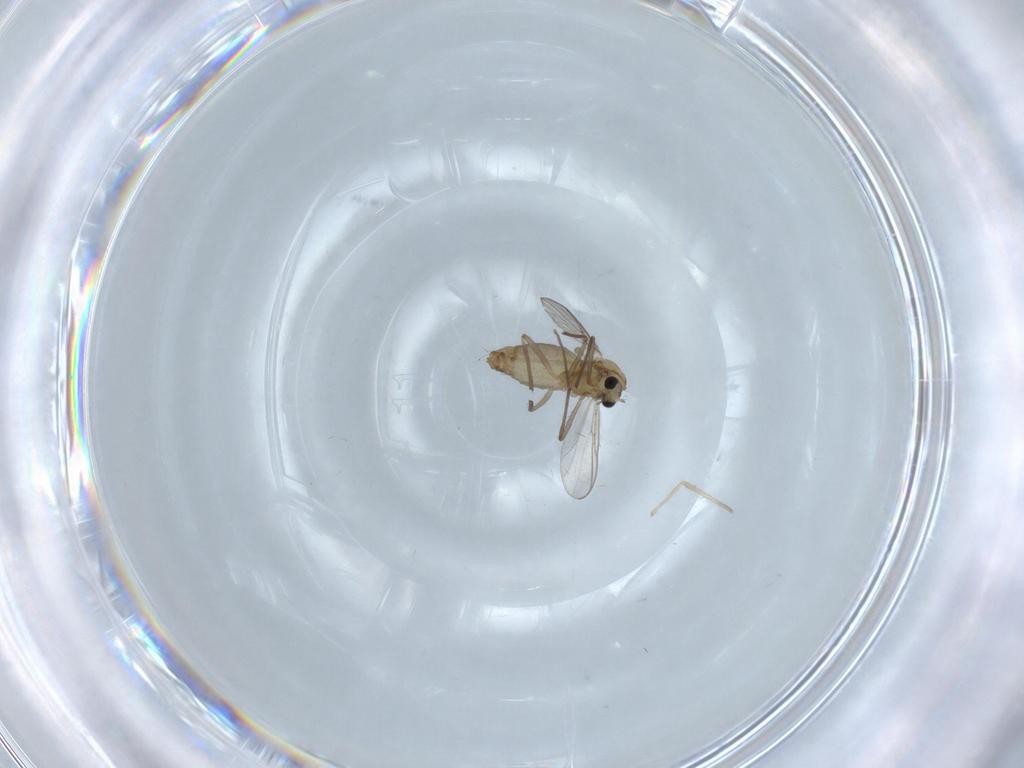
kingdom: Animalia
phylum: Arthropoda
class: Insecta
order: Diptera
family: Chironomidae
